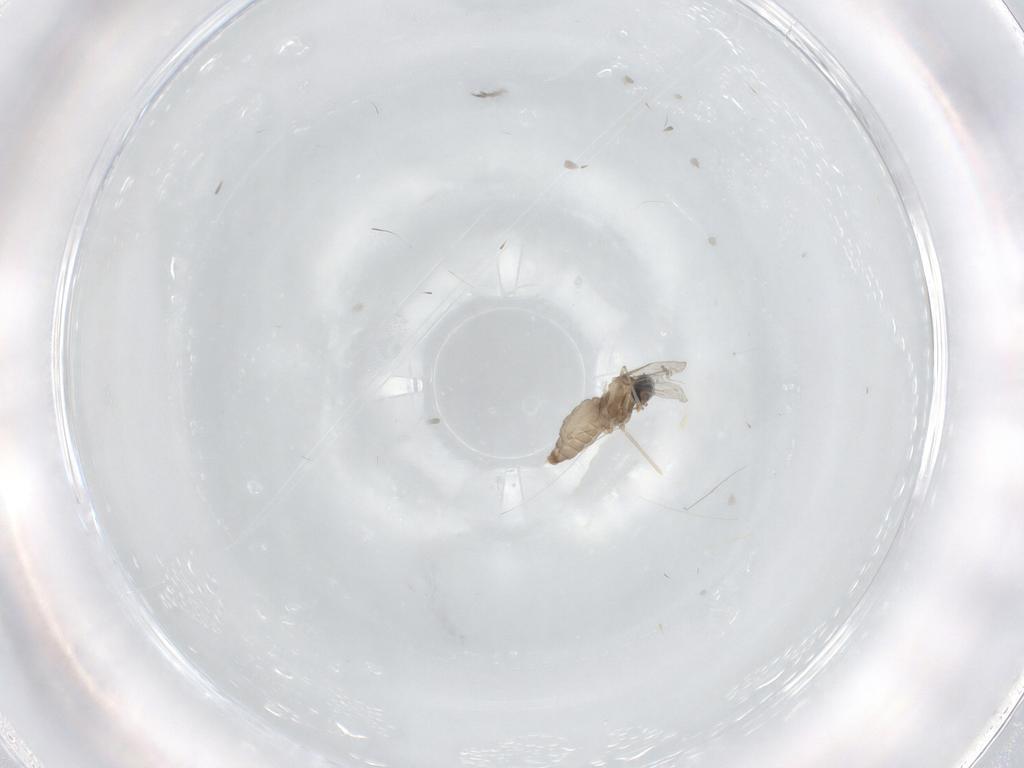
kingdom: Animalia
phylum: Arthropoda
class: Insecta
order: Diptera
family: Cecidomyiidae
